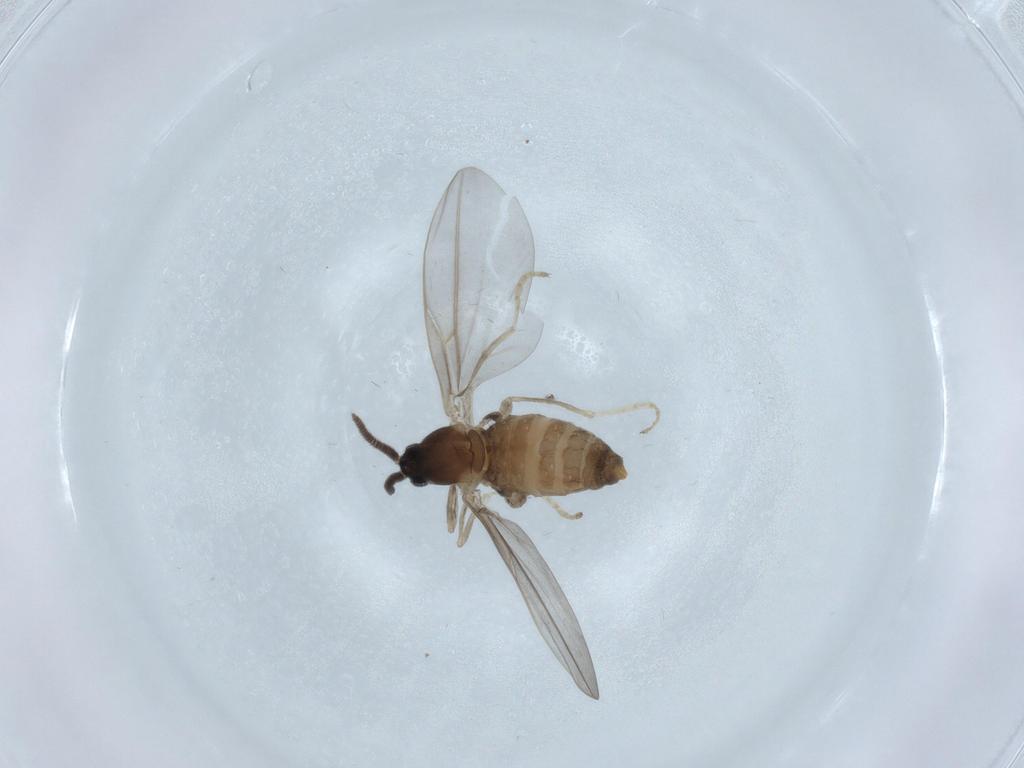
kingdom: Animalia
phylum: Arthropoda
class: Insecta
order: Diptera
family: Cecidomyiidae
